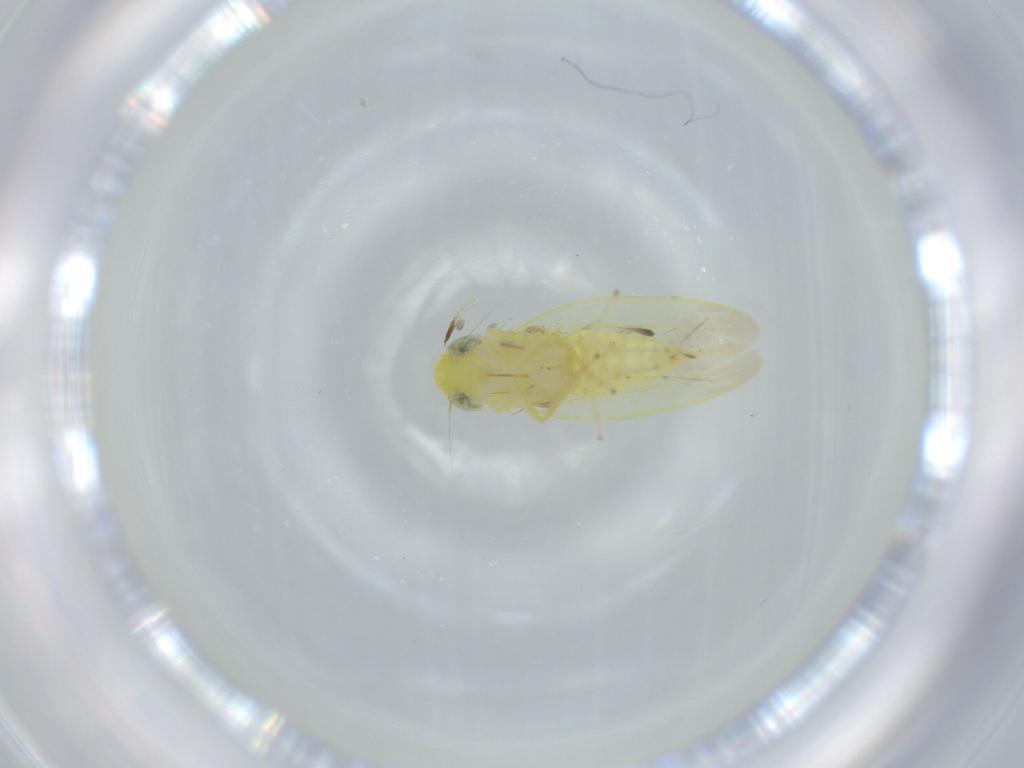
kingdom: Animalia
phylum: Arthropoda
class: Insecta
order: Hemiptera
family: Cicadellidae
